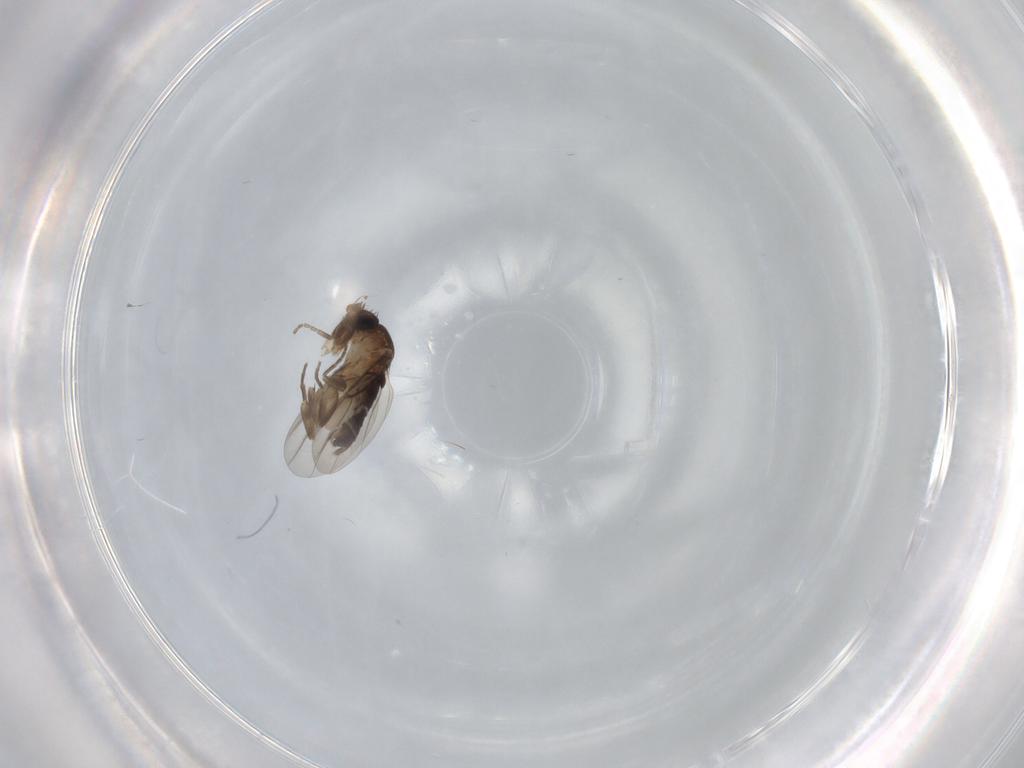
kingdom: Animalia
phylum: Arthropoda
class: Insecta
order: Diptera
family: Phoridae
